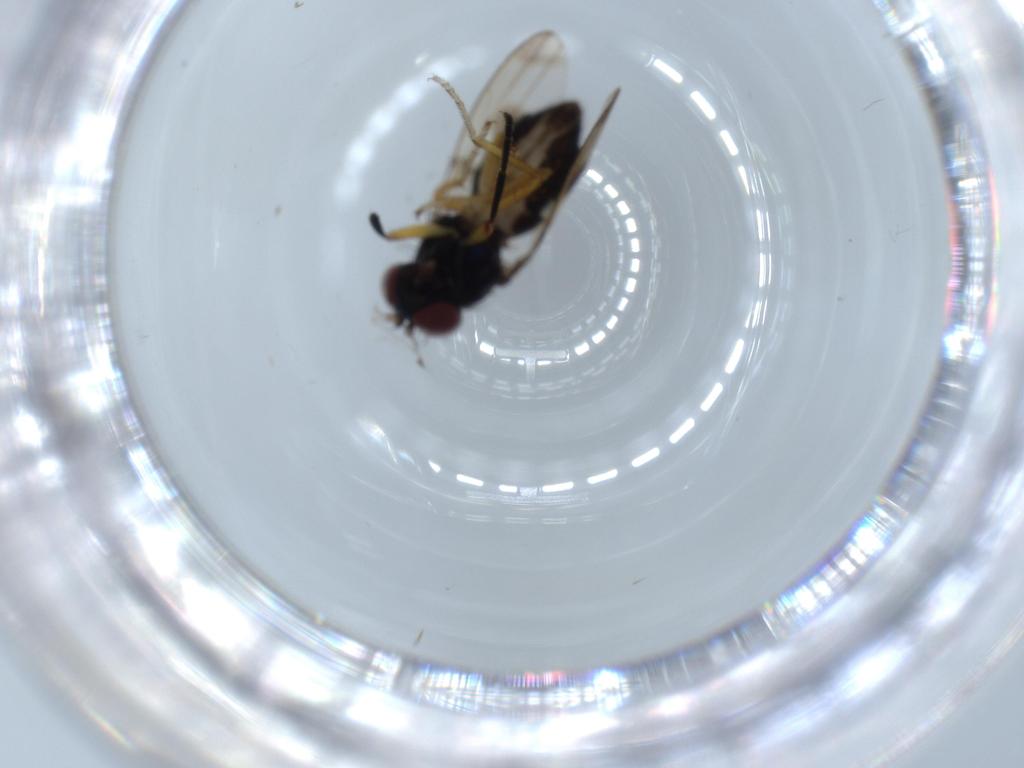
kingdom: Animalia
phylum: Arthropoda
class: Insecta
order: Diptera
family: Ephydridae
